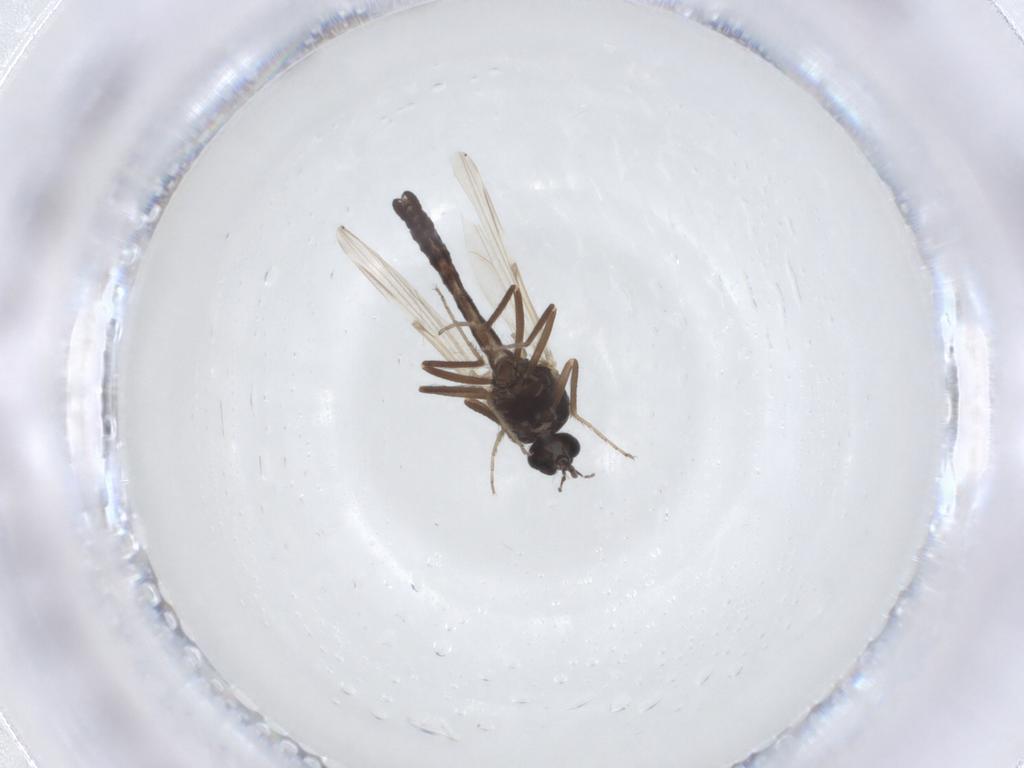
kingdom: Animalia
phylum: Arthropoda
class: Insecta
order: Diptera
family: Ceratopogonidae
